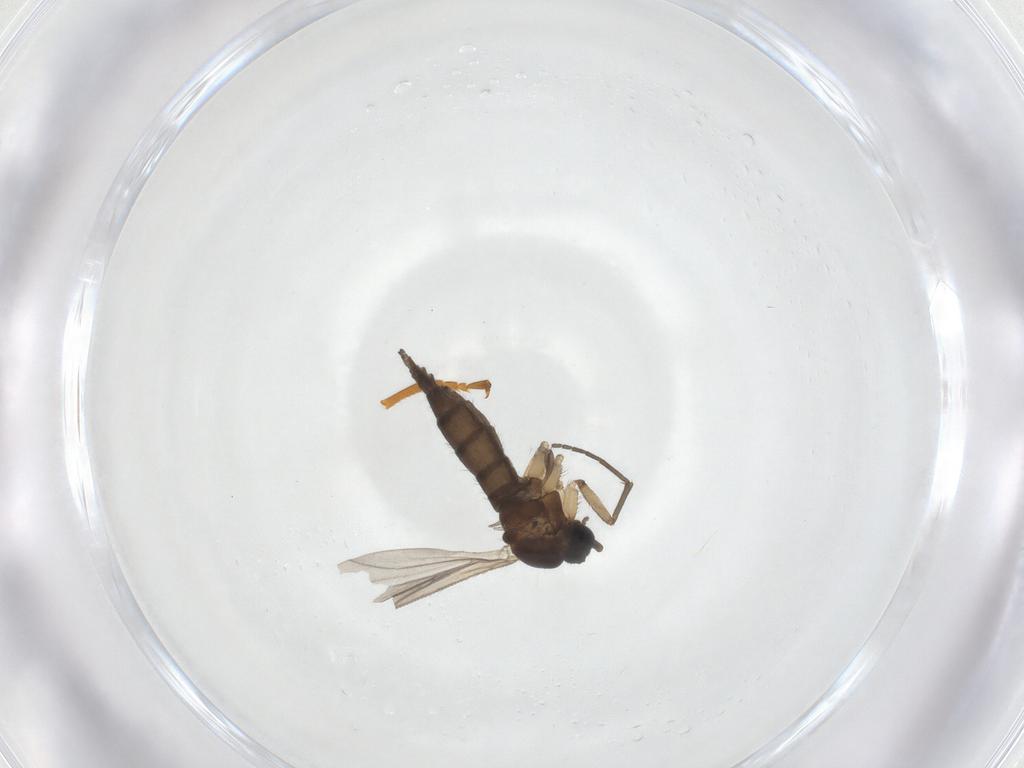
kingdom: Animalia
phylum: Arthropoda
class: Insecta
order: Diptera
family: Sciaridae
